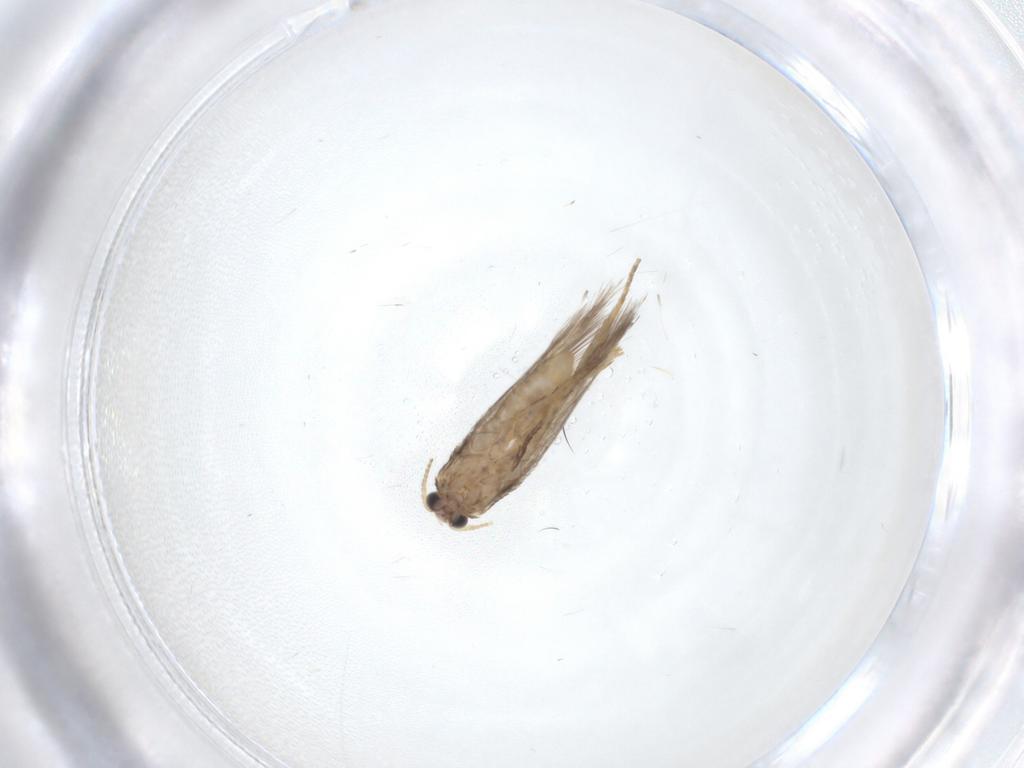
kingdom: Animalia
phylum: Arthropoda
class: Insecta
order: Lepidoptera
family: Nepticulidae
